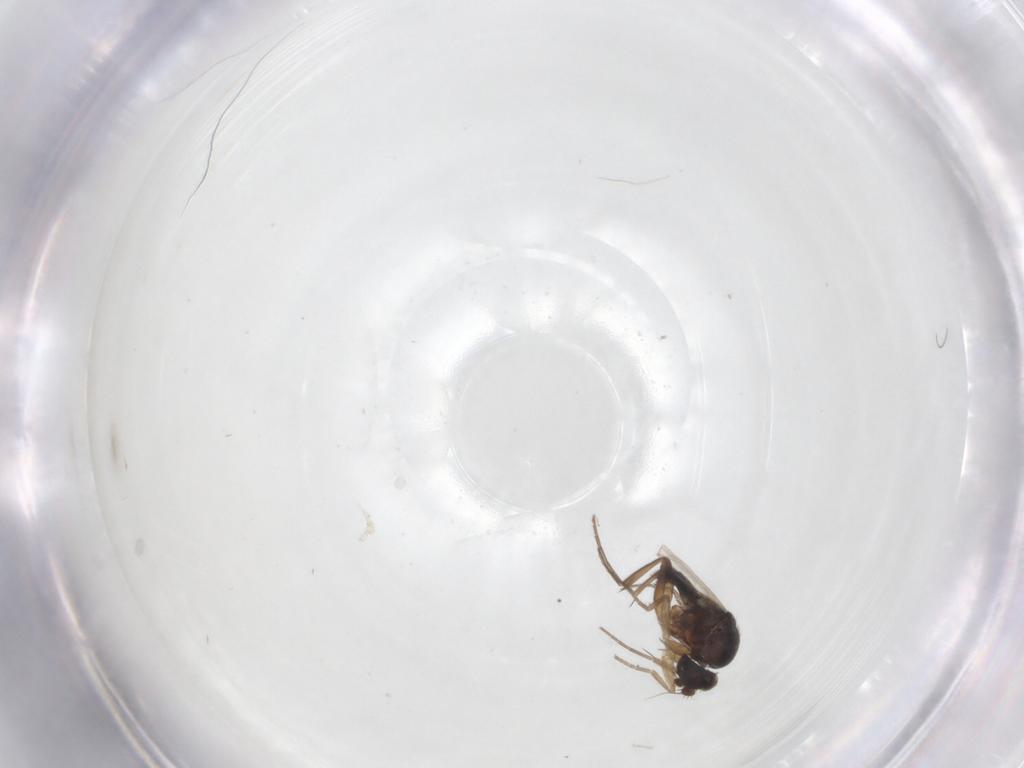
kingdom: Animalia
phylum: Arthropoda
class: Insecta
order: Diptera
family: Phoridae
